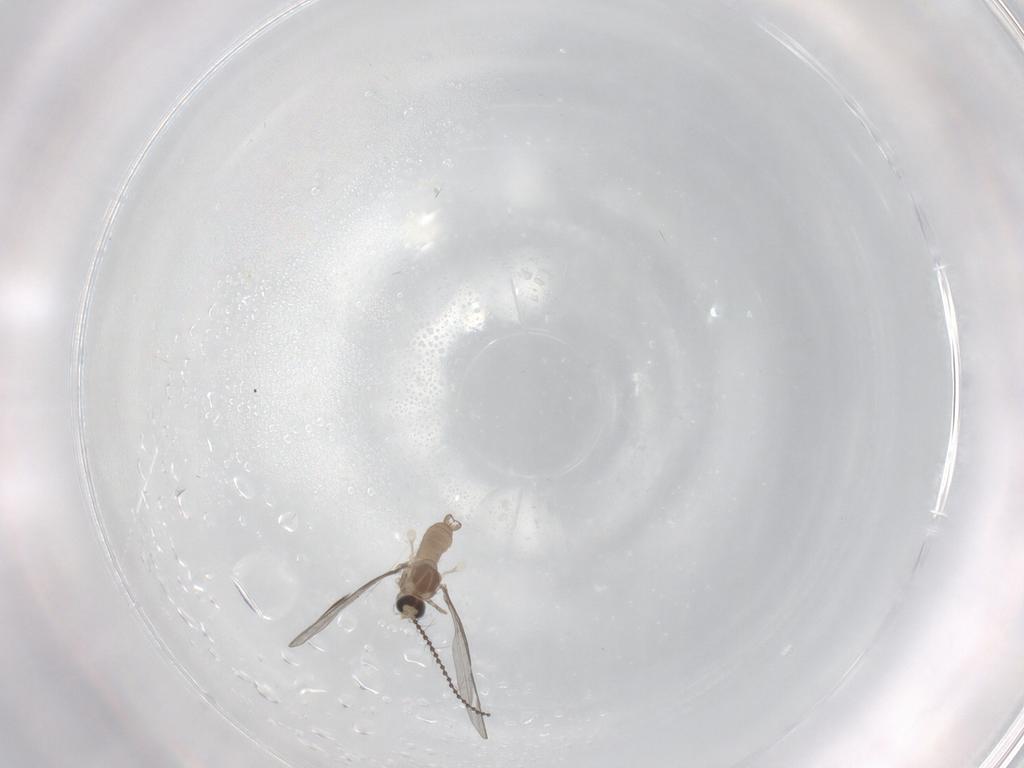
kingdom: Animalia
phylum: Arthropoda
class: Insecta
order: Diptera
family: Cecidomyiidae
